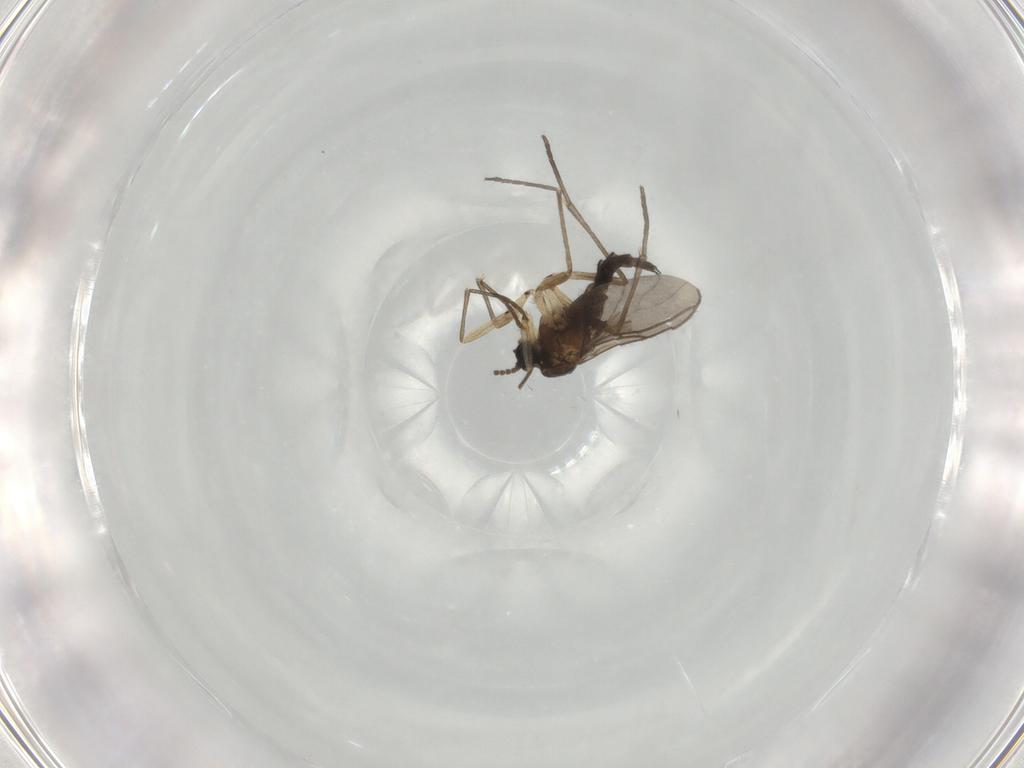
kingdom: Animalia
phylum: Arthropoda
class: Insecta
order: Diptera
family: Sciaridae
